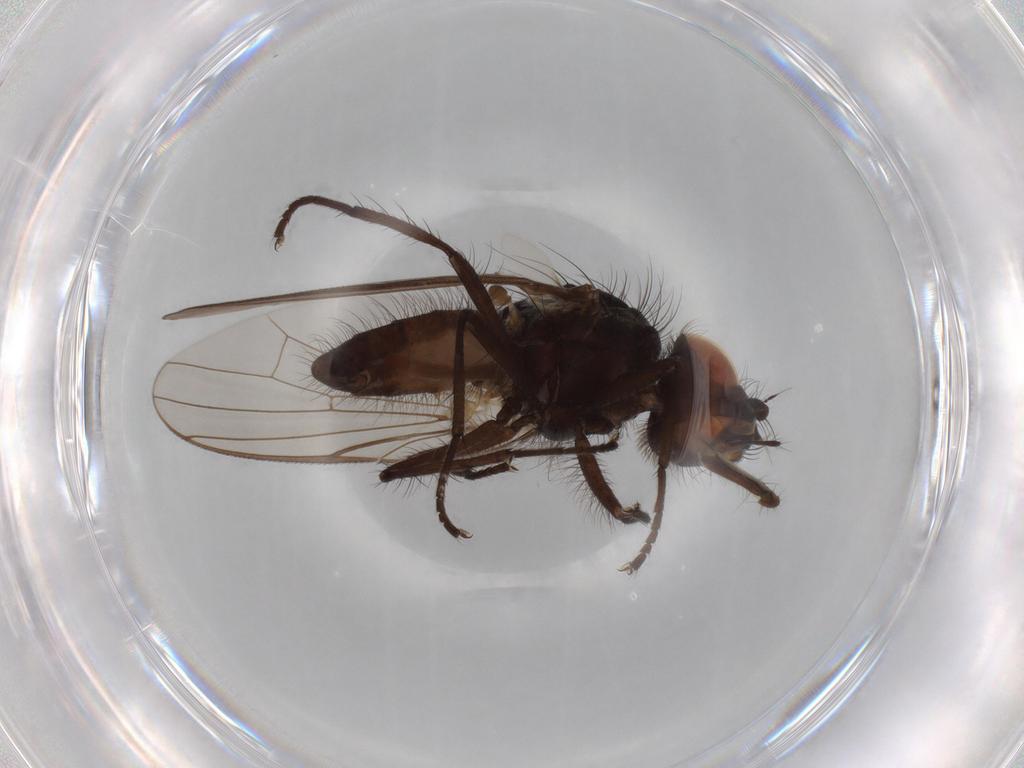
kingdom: Animalia
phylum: Arthropoda
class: Insecta
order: Diptera
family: Anthomyiidae
